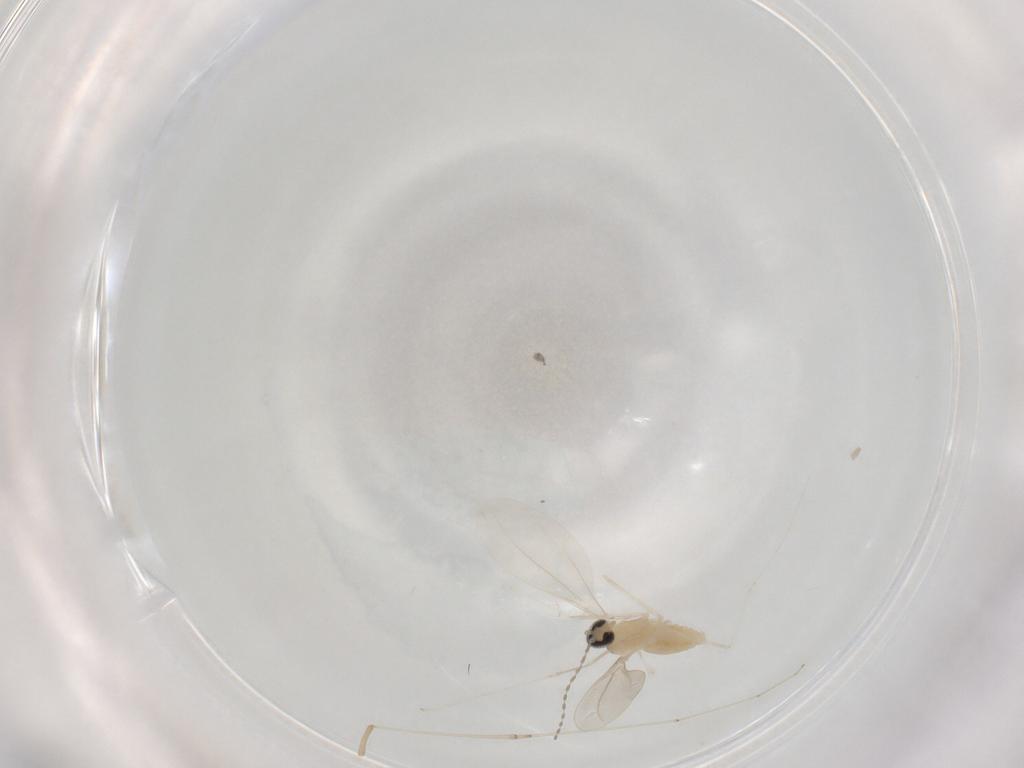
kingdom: Animalia
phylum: Arthropoda
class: Insecta
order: Diptera
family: Cecidomyiidae
